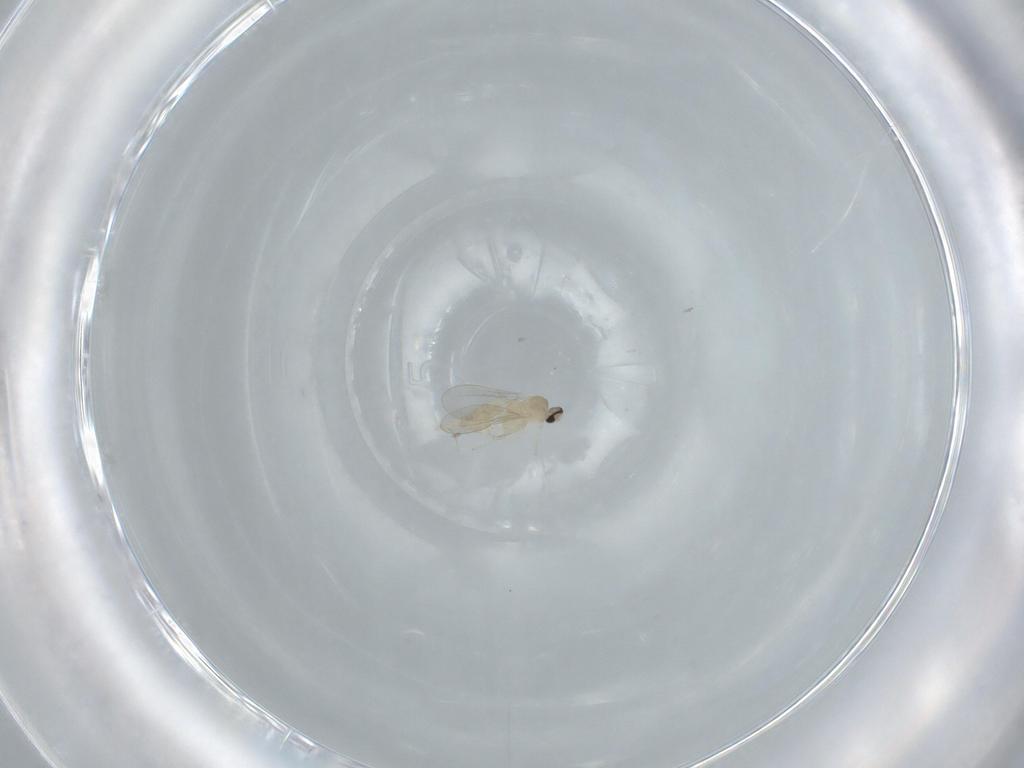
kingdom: Animalia
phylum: Arthropoda
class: Insecta
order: Diptera
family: Cecidomyiidae
